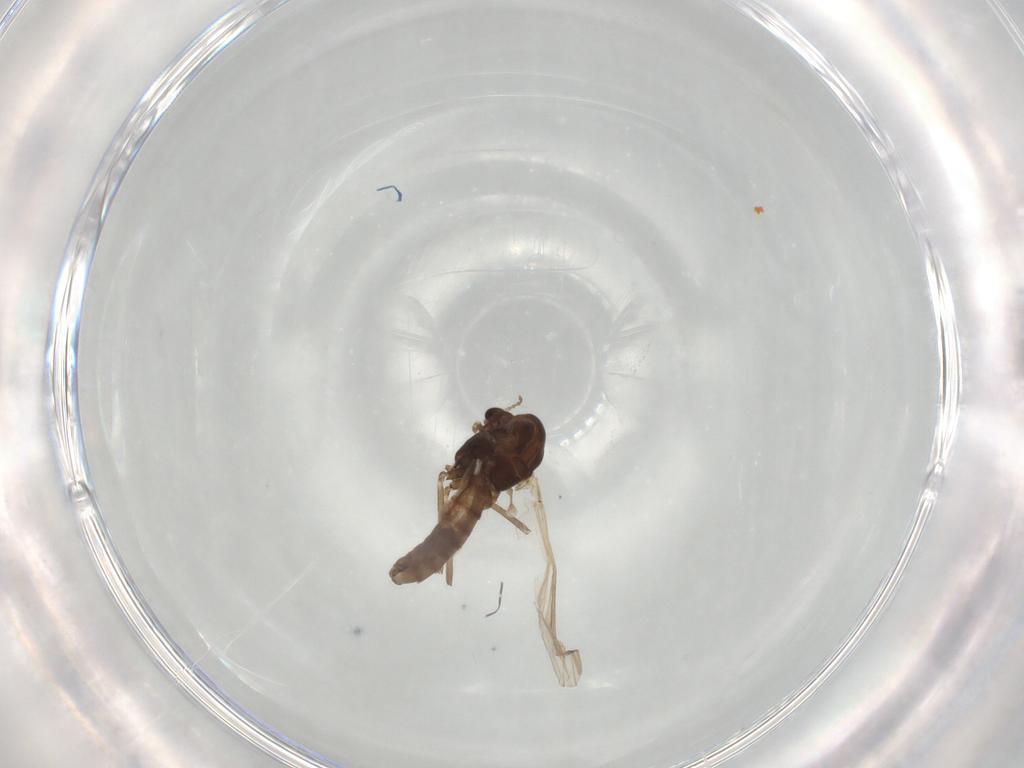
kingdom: Animalia
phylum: Arthropoda
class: Insecta
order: Diptera
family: Chironomidae
